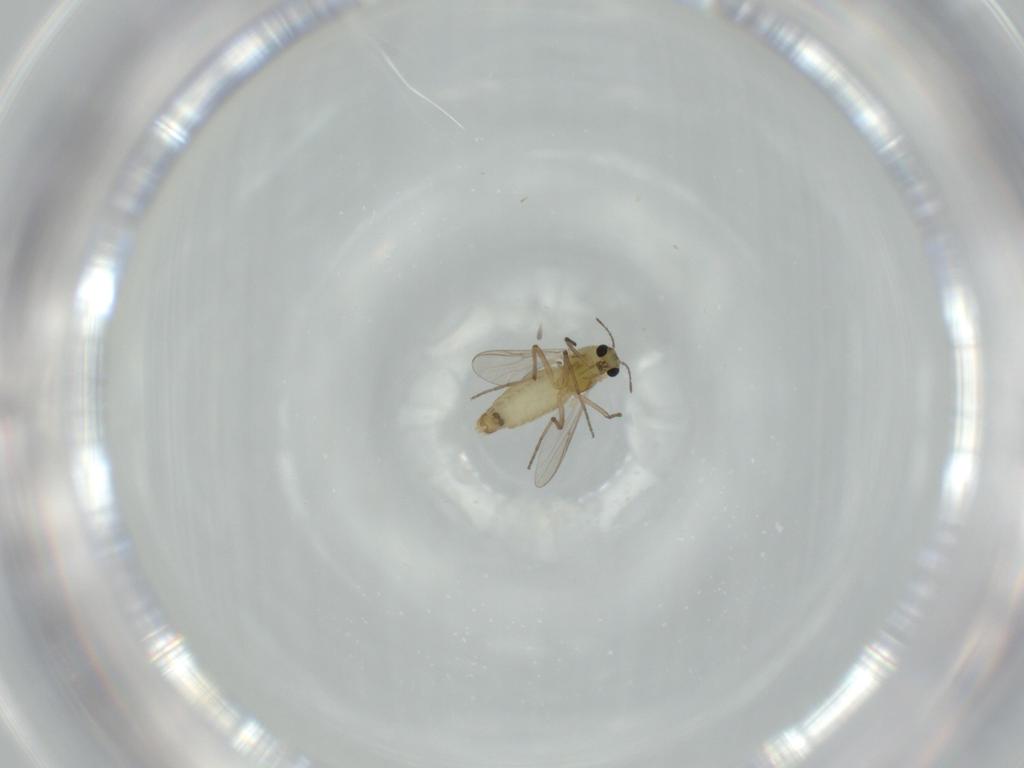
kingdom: Animalia
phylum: Arthropoda
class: Insecta
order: Diptera
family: Chironomidae
